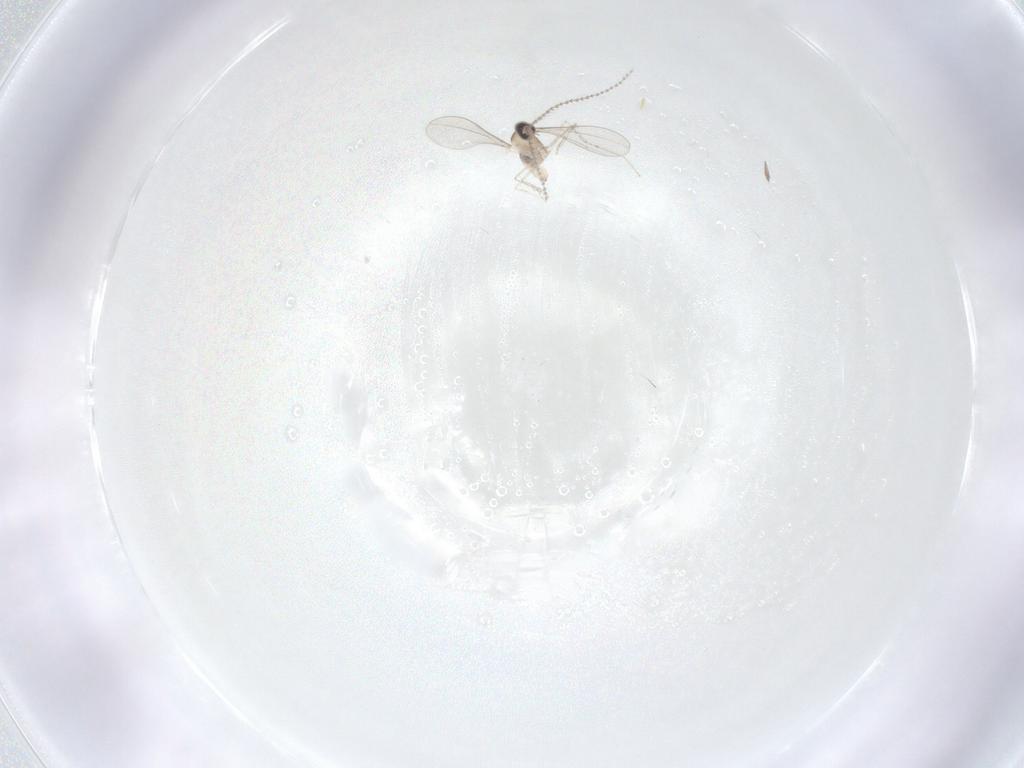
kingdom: Animalia
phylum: Arthropoda
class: Insecta
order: Diptera
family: Cecidomyiidae
